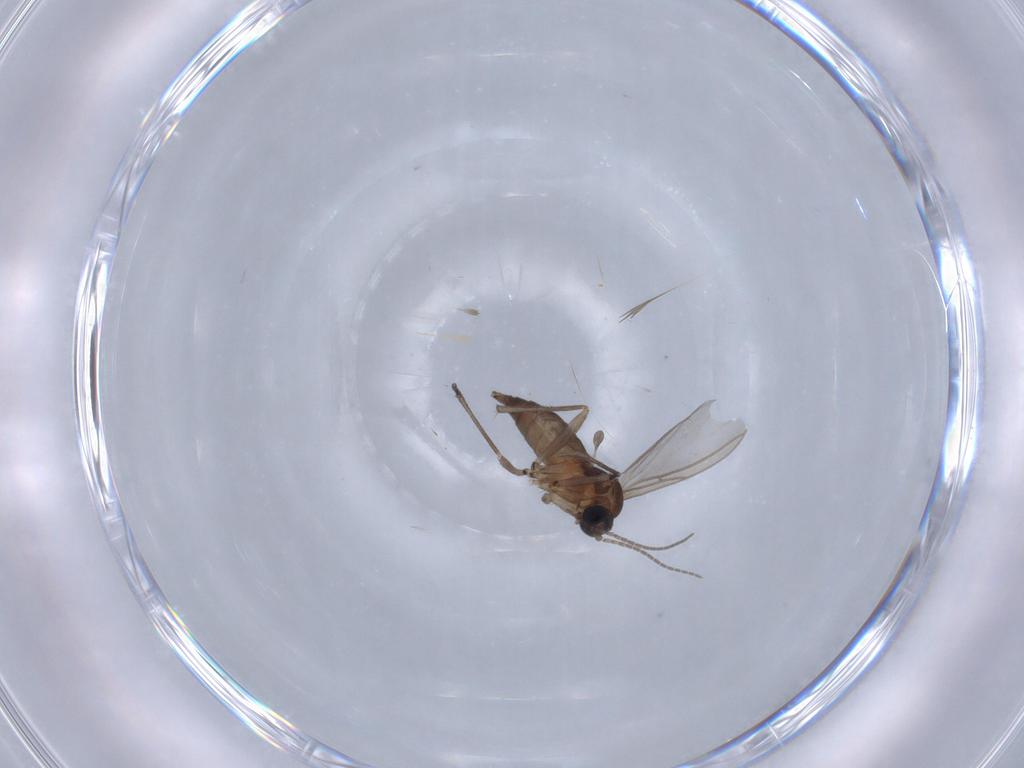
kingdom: Animalia
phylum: Arthropoda
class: Insecta
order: Diptera
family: Sciaridae
